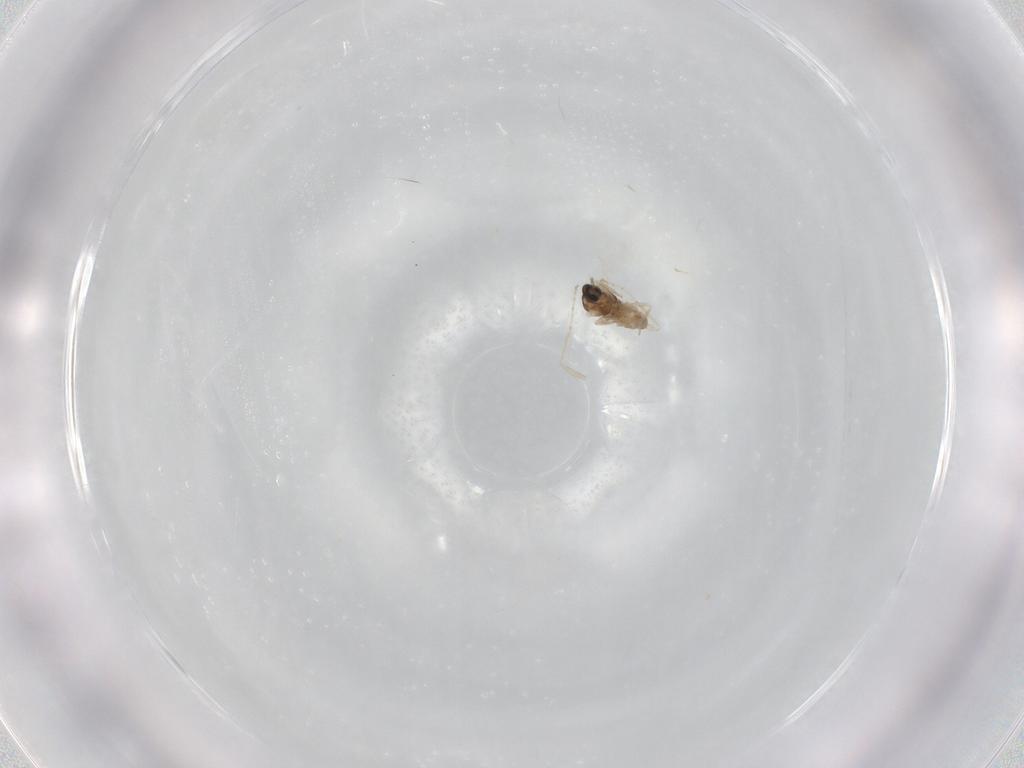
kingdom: Animalia
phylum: Arthropoda
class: Insecta
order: Diptera
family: Cecidomyiidae
